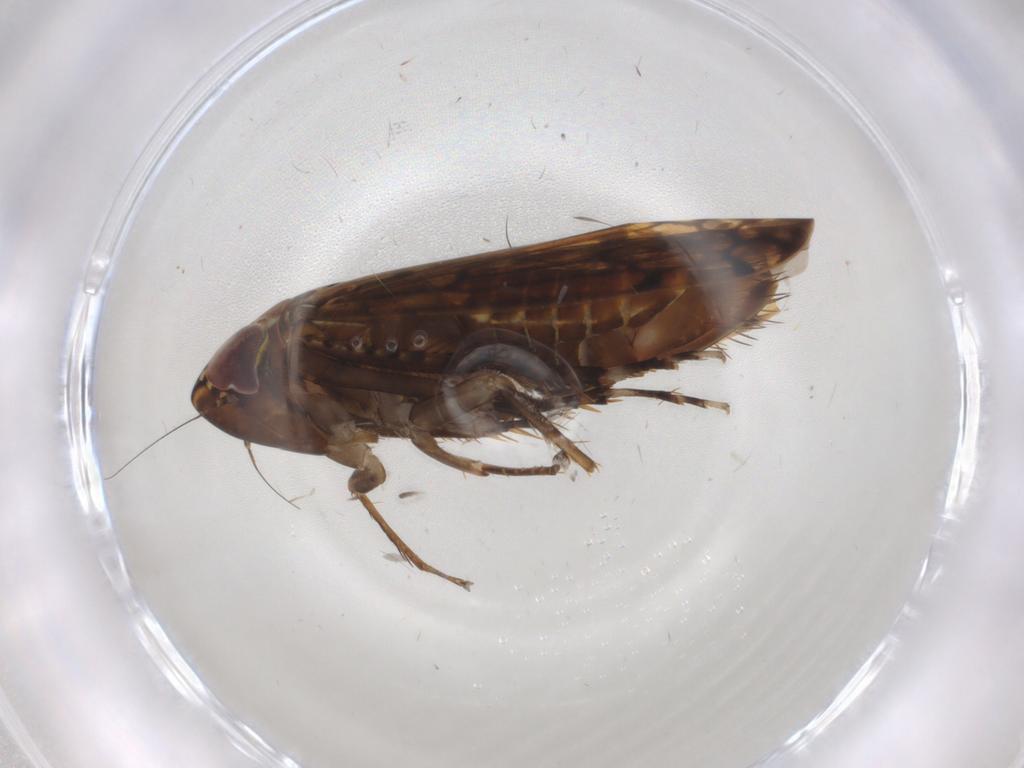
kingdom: Animalia
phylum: Arthropoda
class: Insecta
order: Hemiptera
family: Cicadellidae
